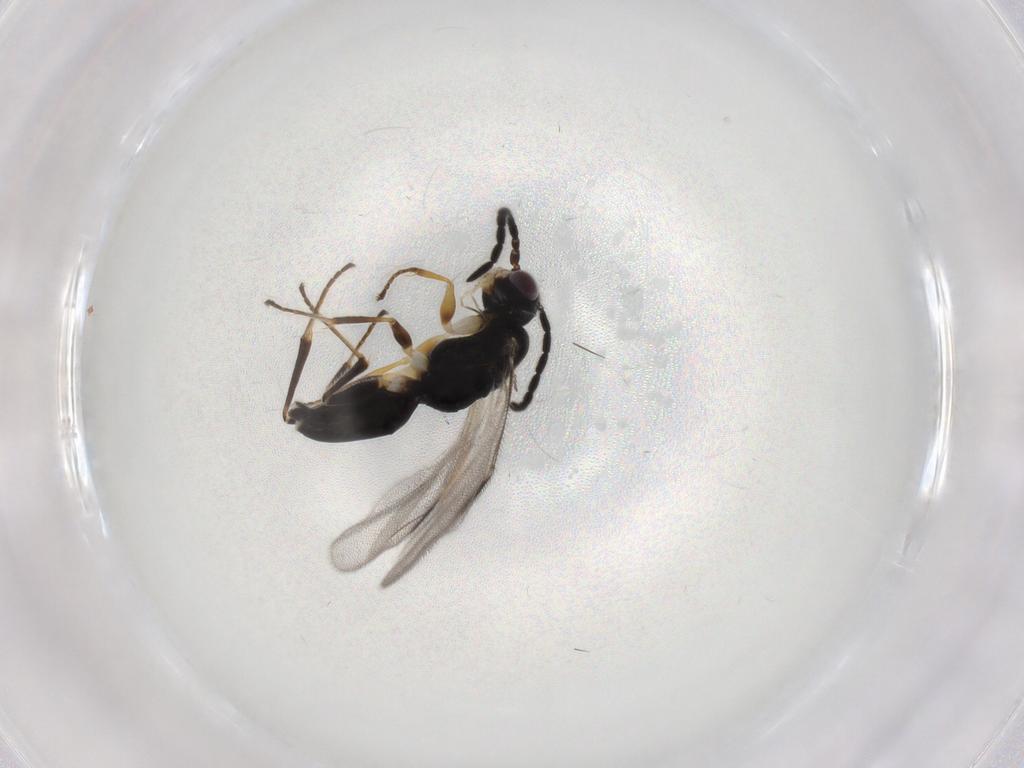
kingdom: Animalia
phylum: Arthropoda
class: Insecta
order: Hymenoptera
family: Dryinidae
